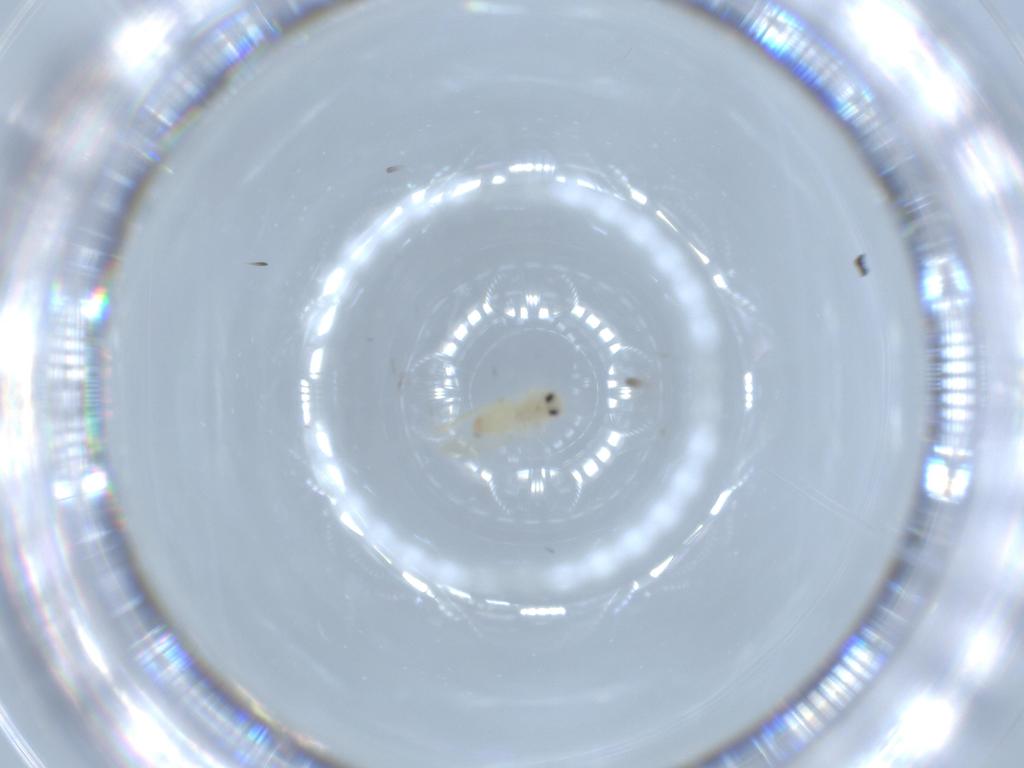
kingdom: Animalia
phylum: Arthropoda
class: Insecta
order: Hemiptera
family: Aleyrodidae
